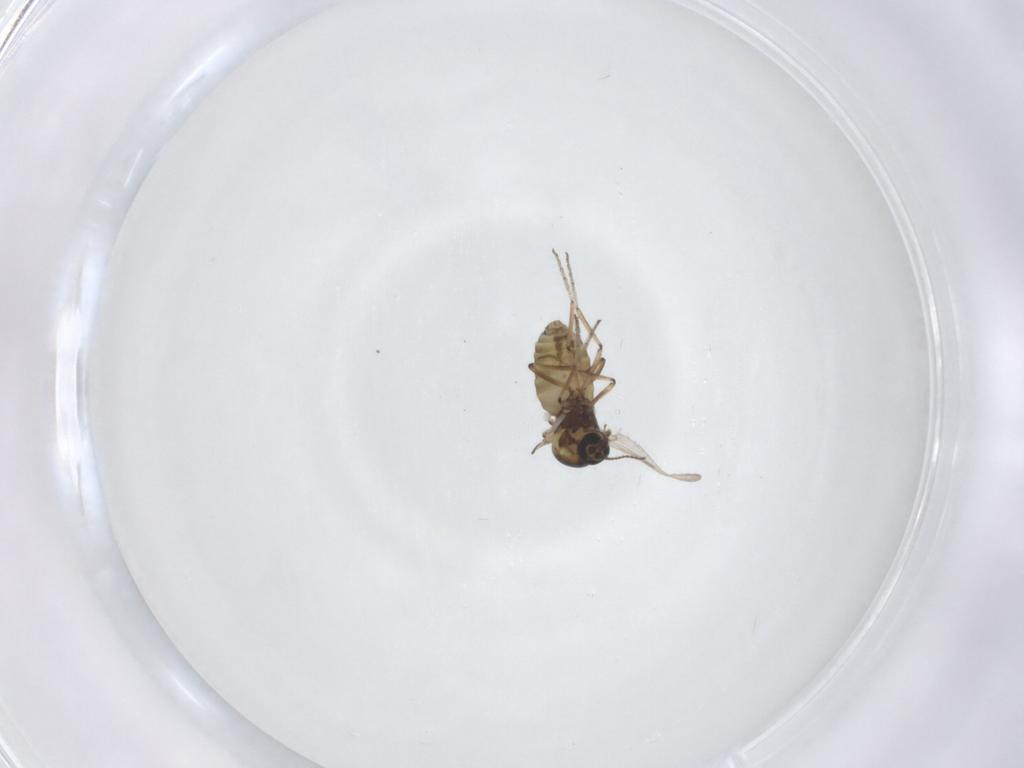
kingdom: Animalia
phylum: Arthropoda
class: Insecta
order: Diptera
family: Ceratopogonidae
